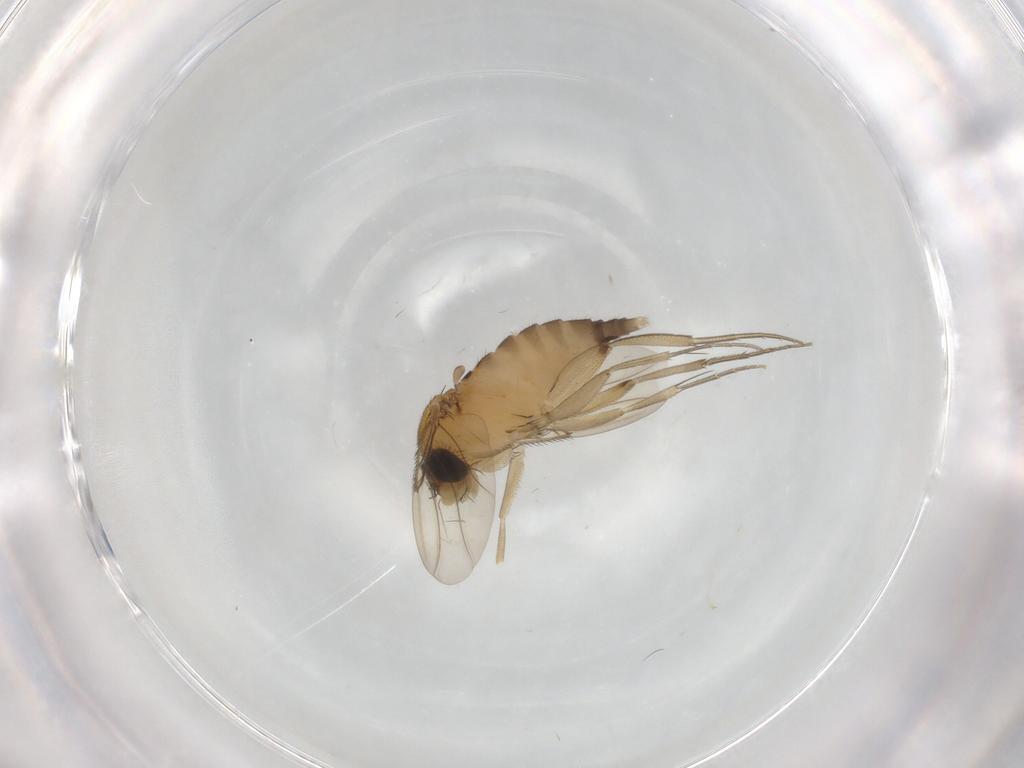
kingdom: Animalia
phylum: Arthropoda
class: Insecta
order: Diptera
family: Phoridae
